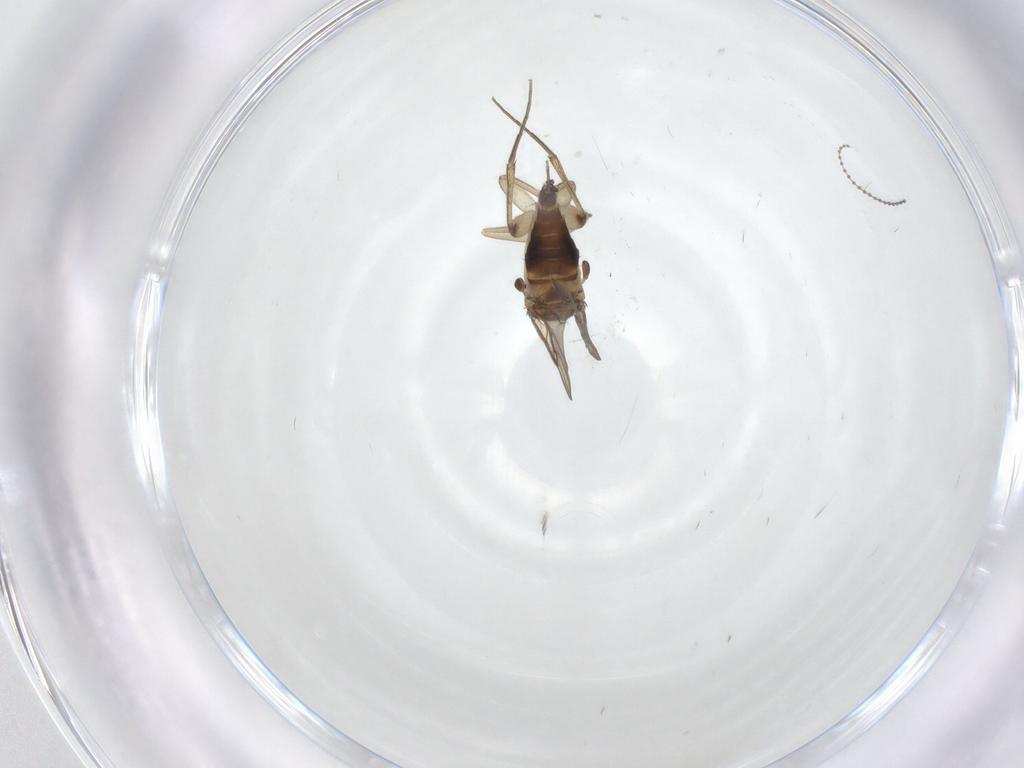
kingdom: Animalia
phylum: Arthropoda
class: Insecta
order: Diptera
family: Phoridae
